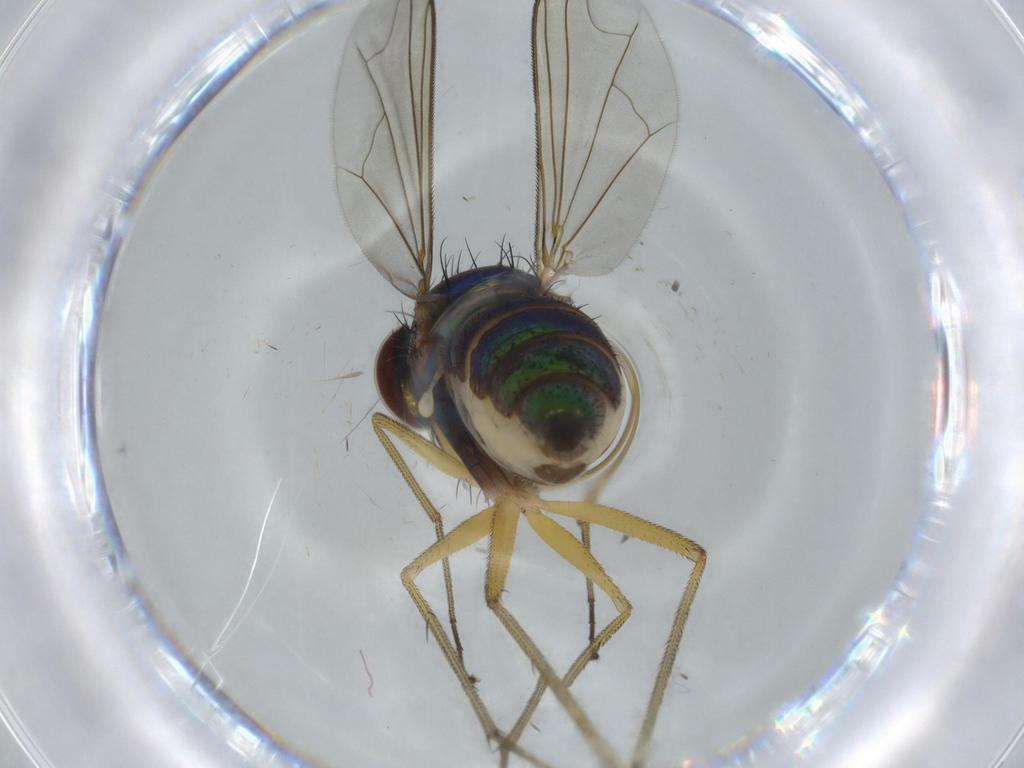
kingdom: Animalia
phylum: Arthropoda
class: Insecta
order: Diptera
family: Dolichopodidae
